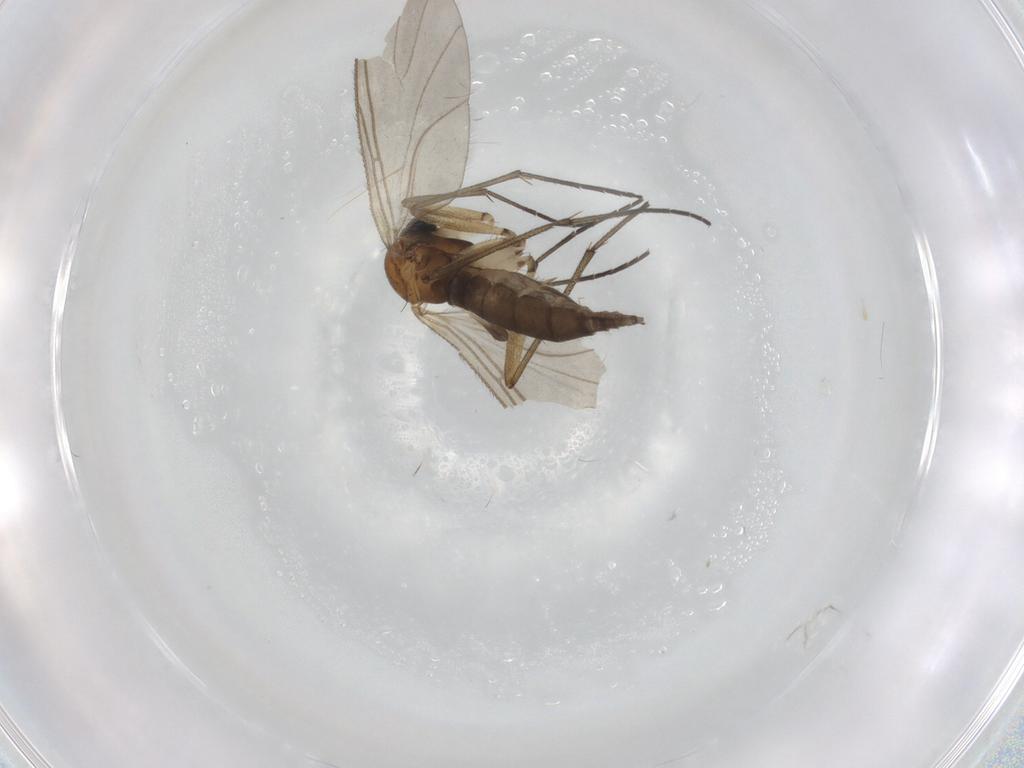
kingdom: Animalia
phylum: Arthropoda
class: Insecta
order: Diptera
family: Sciaridae
